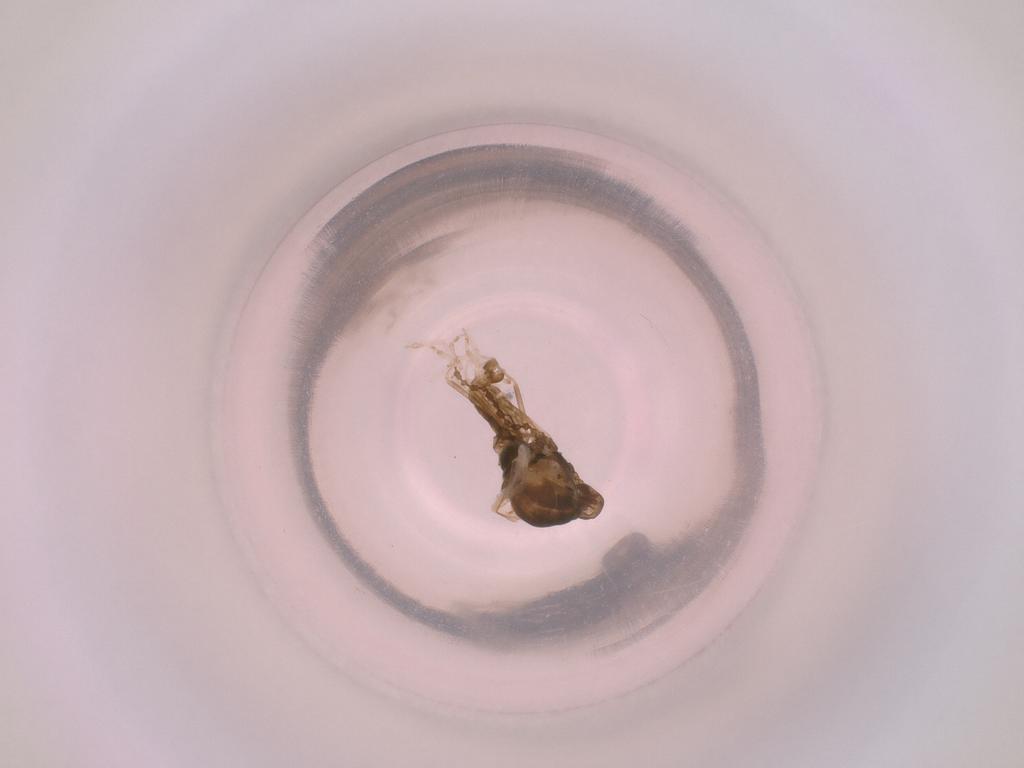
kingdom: Animalia
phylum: Arthropoda
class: Insecta
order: Diptera
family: Cecidomyiidae
